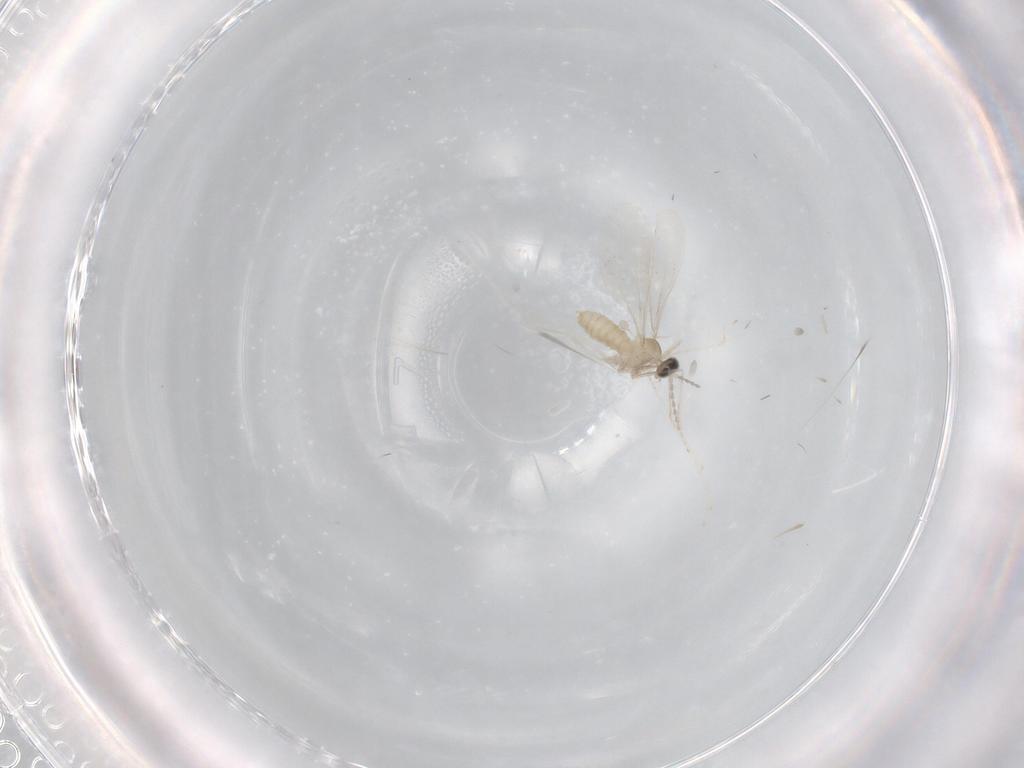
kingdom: Animalia
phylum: Arthropoda
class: Insecta
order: Diptera
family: Cecidomyiidae
